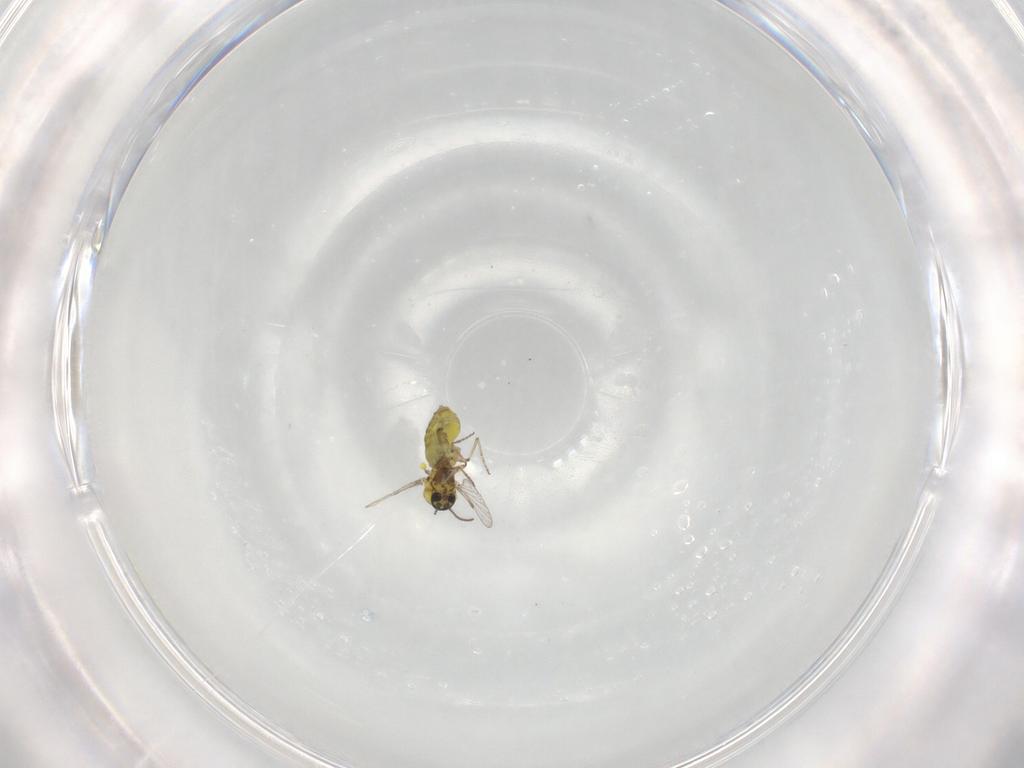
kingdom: Animalia
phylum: Arthropoda
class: Insecta
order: Diptera
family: Ceratopogonidae
